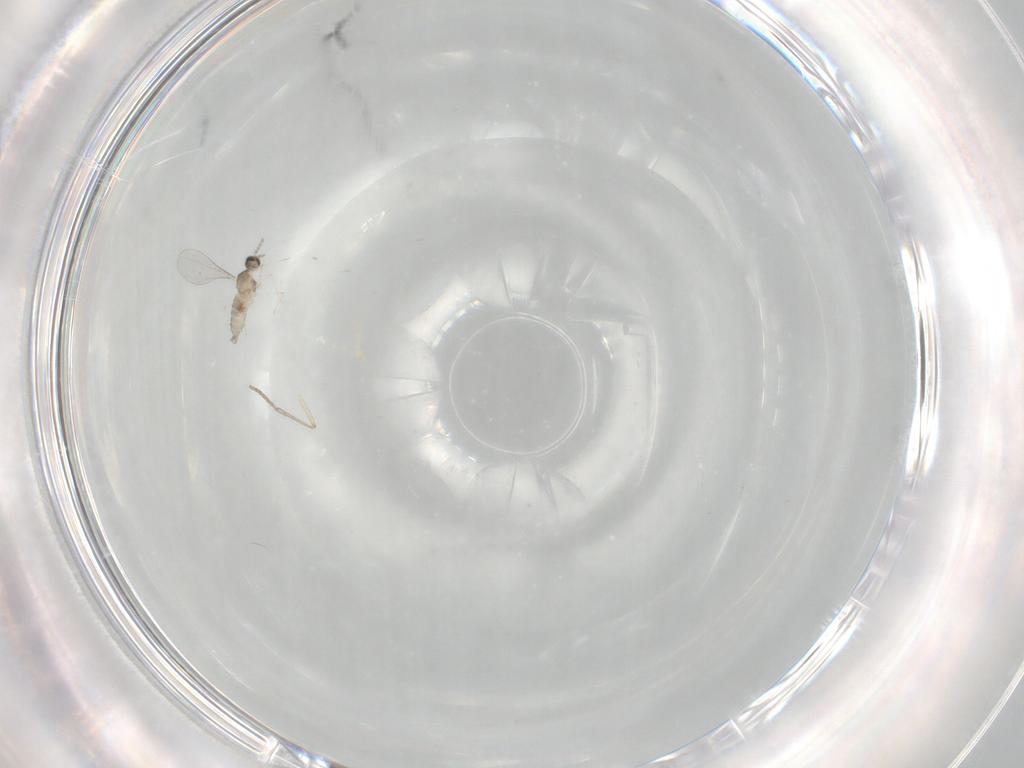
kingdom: Animalia
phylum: Arthropoda
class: Insecta
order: Diptera
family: Cecidomyiidae
